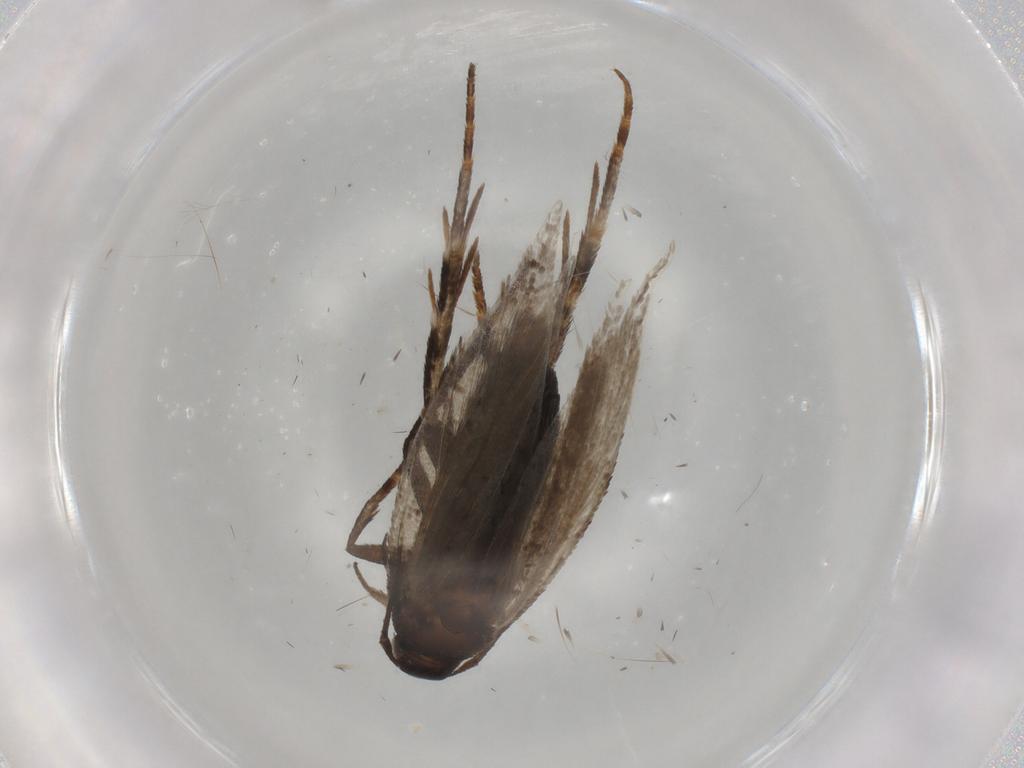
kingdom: Animalia
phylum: Arthropoda
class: Insecta
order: Lepidoptera
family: Gelechiidae
